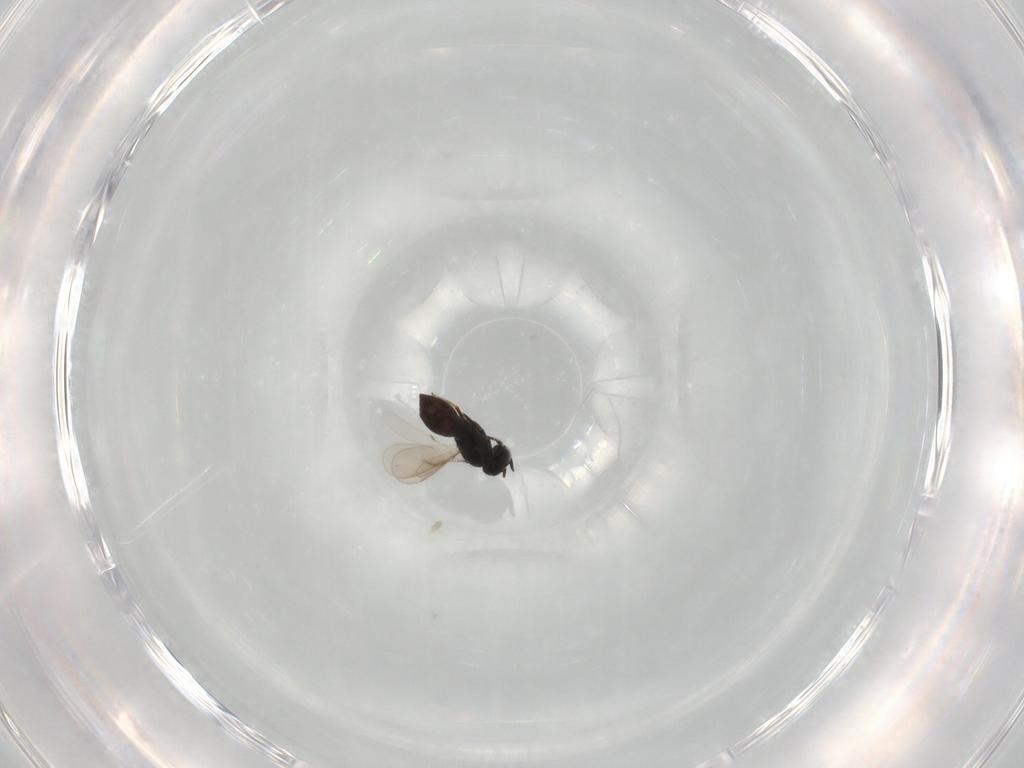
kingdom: Animalia
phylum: Arthropoda
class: Insecta
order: Hymenoptera
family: Scelionidae
